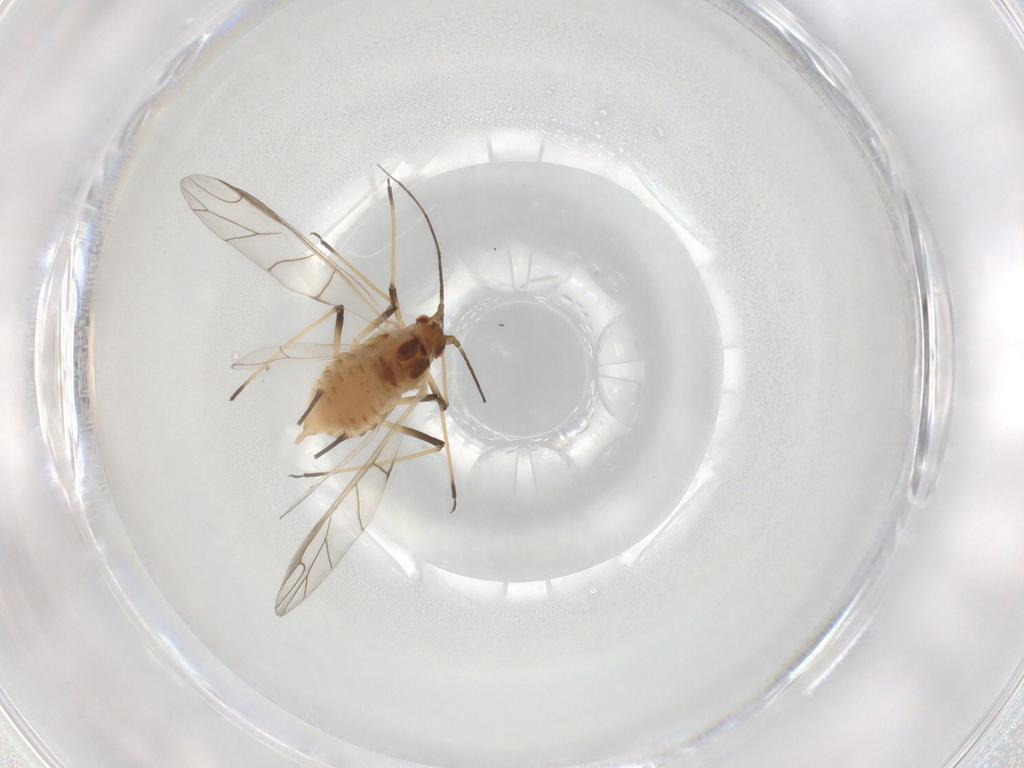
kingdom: Animalia
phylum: Arthropoda
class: Insecta
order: Hemiptera
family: Aphididae
